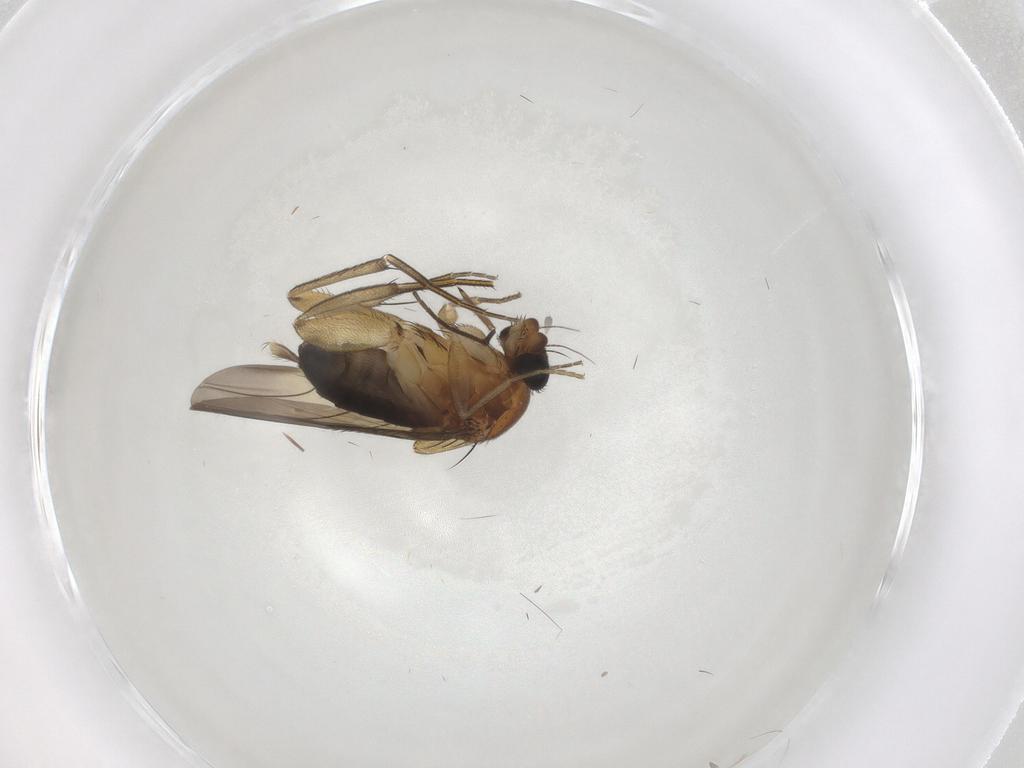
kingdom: Animalia
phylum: Arthropoda
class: Insecta
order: Diptera
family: Phoridae
